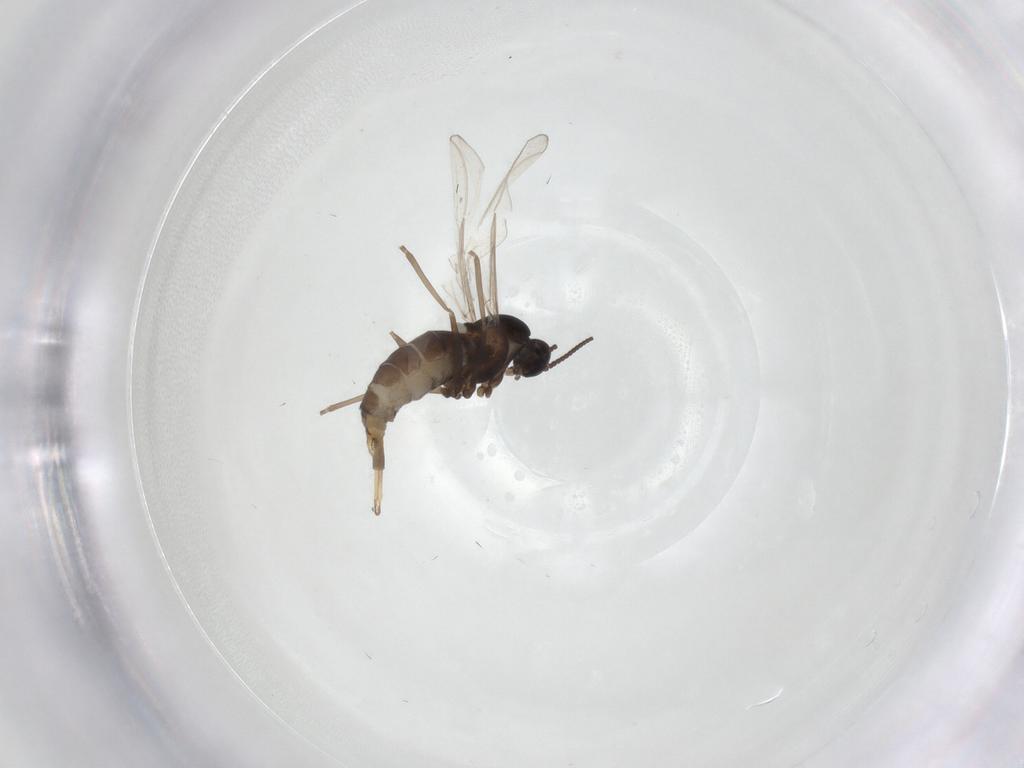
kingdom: Animalia
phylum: Arthropoda
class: Insecta
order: Diptera
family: Cecidomyiidae
